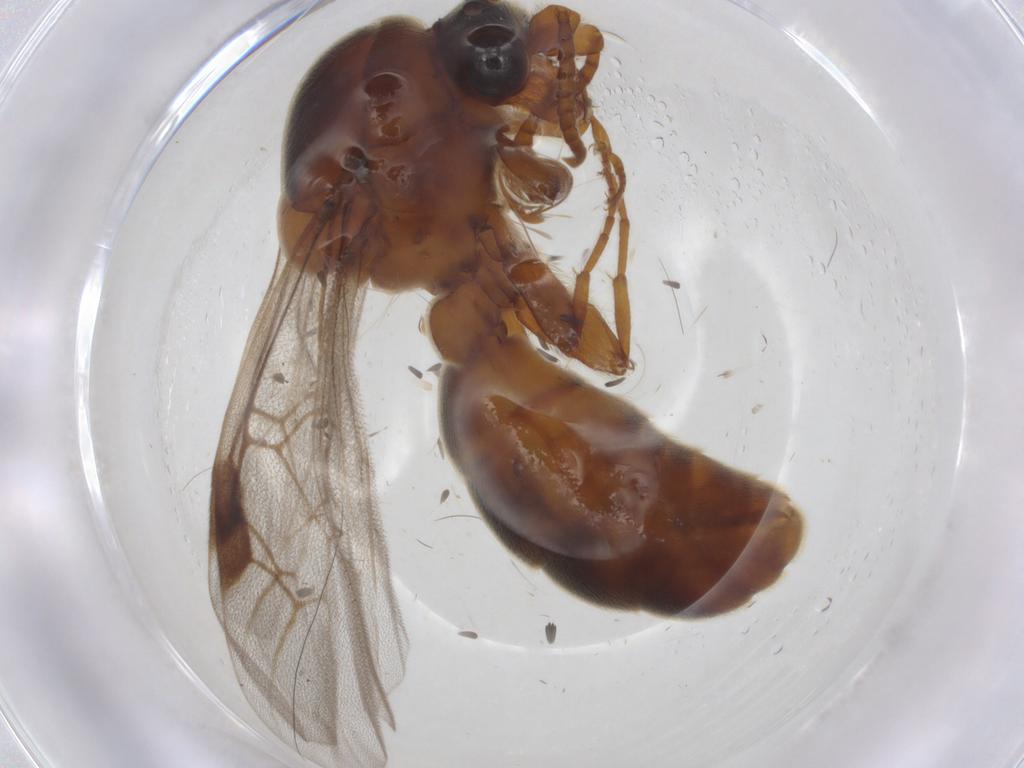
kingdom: Animalia
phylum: Arthropoda
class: Insecta
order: Hymenoptera
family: Formicidae
